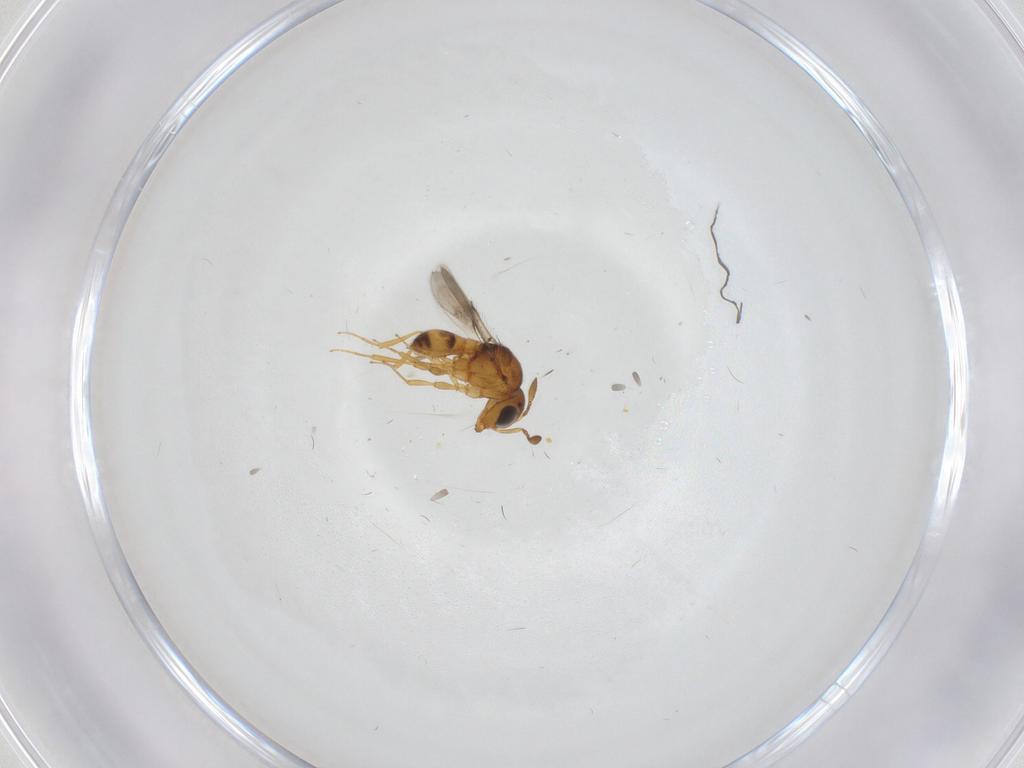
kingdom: Animalia
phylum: Arthropoda
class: Insecta
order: Hymenoptera
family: Scelionidae
